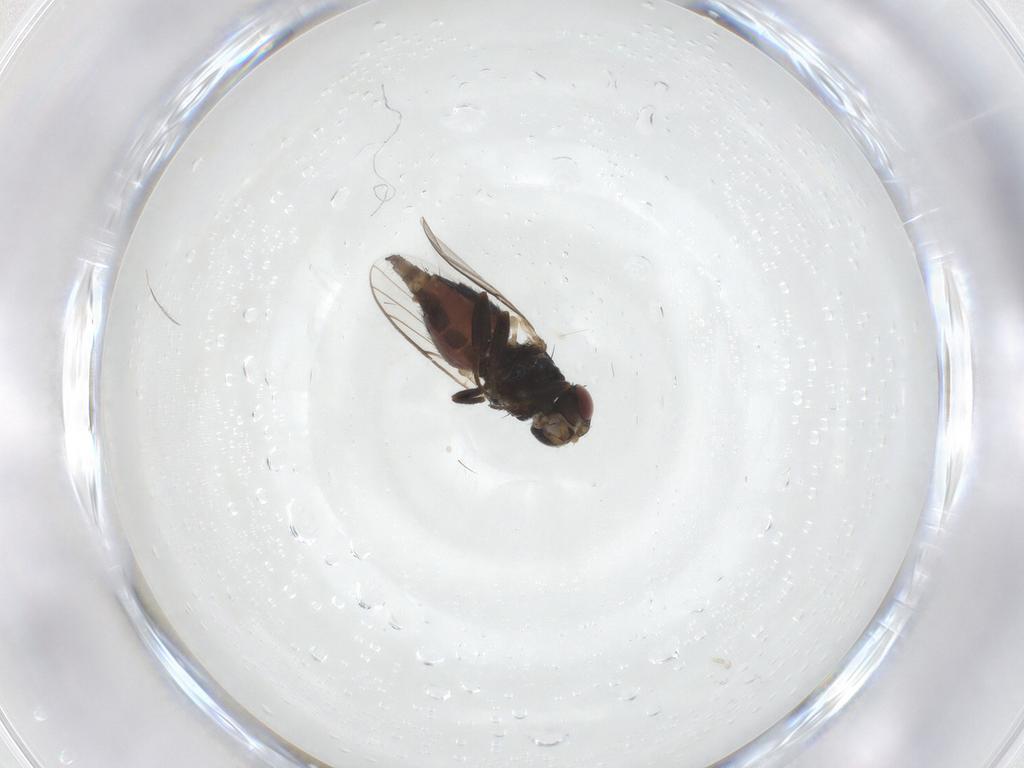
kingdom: Animalia
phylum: Arthropoda
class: Insecta
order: Diptera
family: Chloropidae
